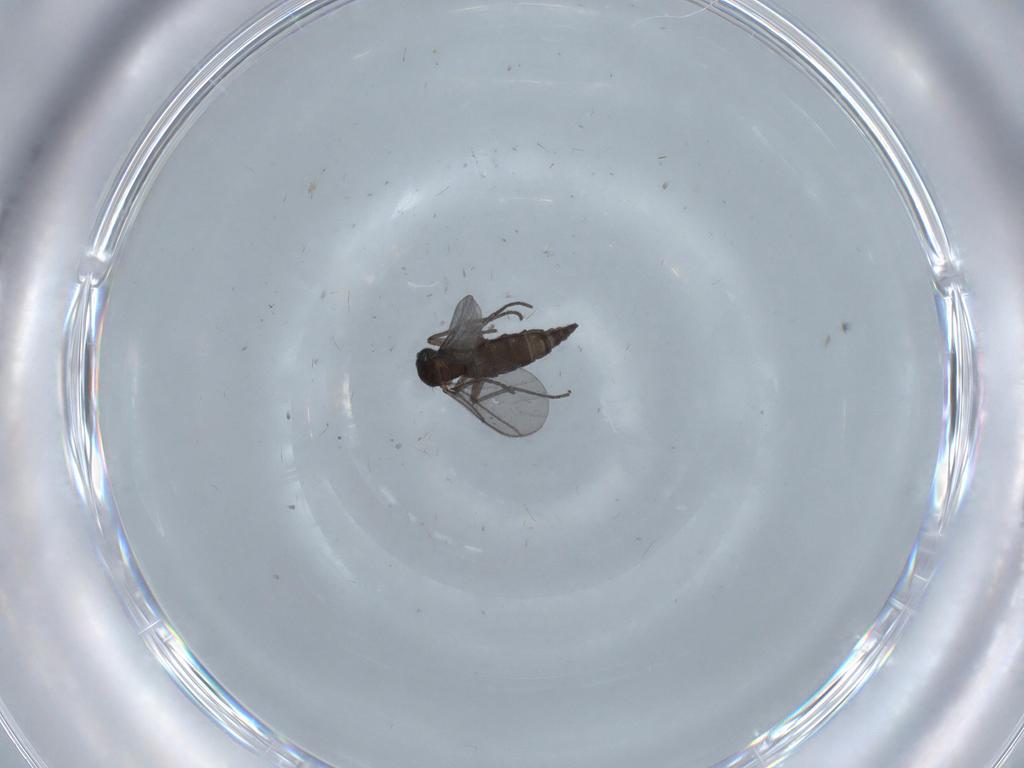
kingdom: Animalia
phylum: Arthropoda
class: Insecta
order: Diptera
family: Cecidomyiidae
